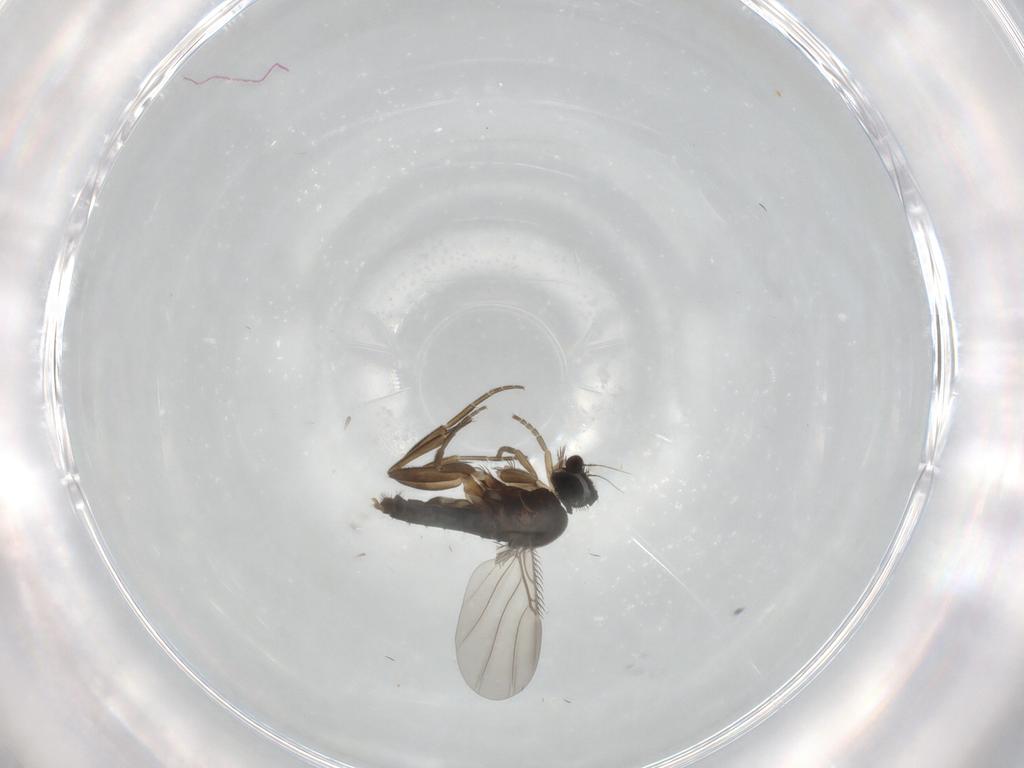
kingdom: Animalia
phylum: Arthropoda
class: Insecta
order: Diptera
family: Phoridae
